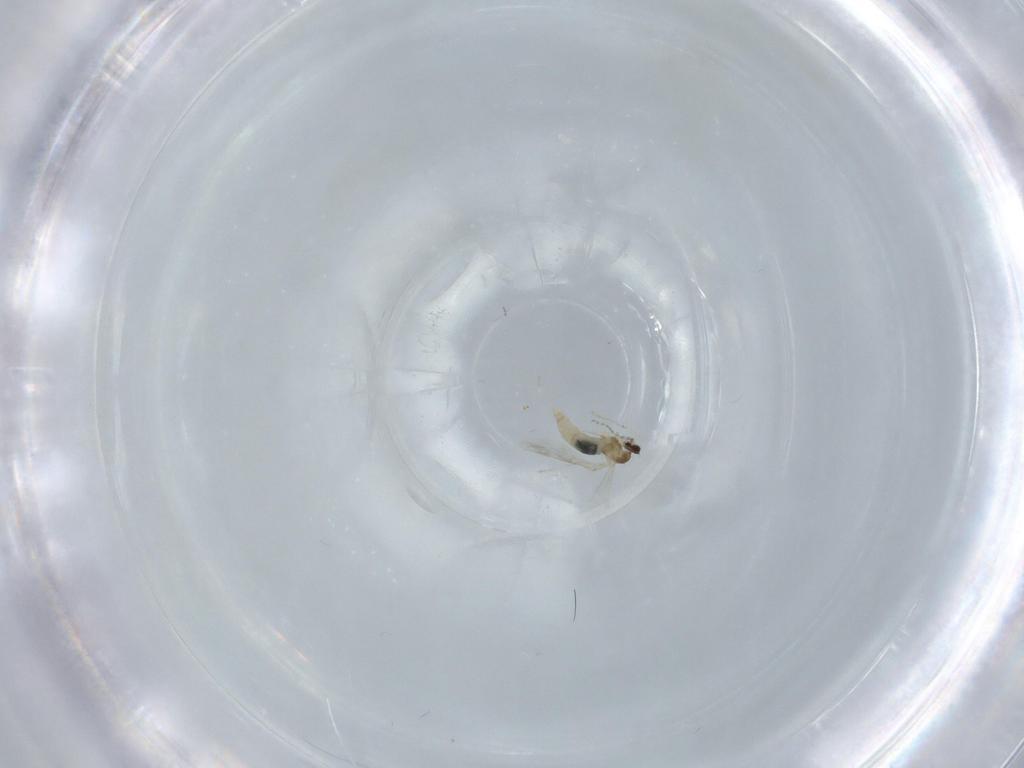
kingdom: Animalia
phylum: Arthropoda
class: Insecta
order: Diptera
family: Cecidomyiidae
